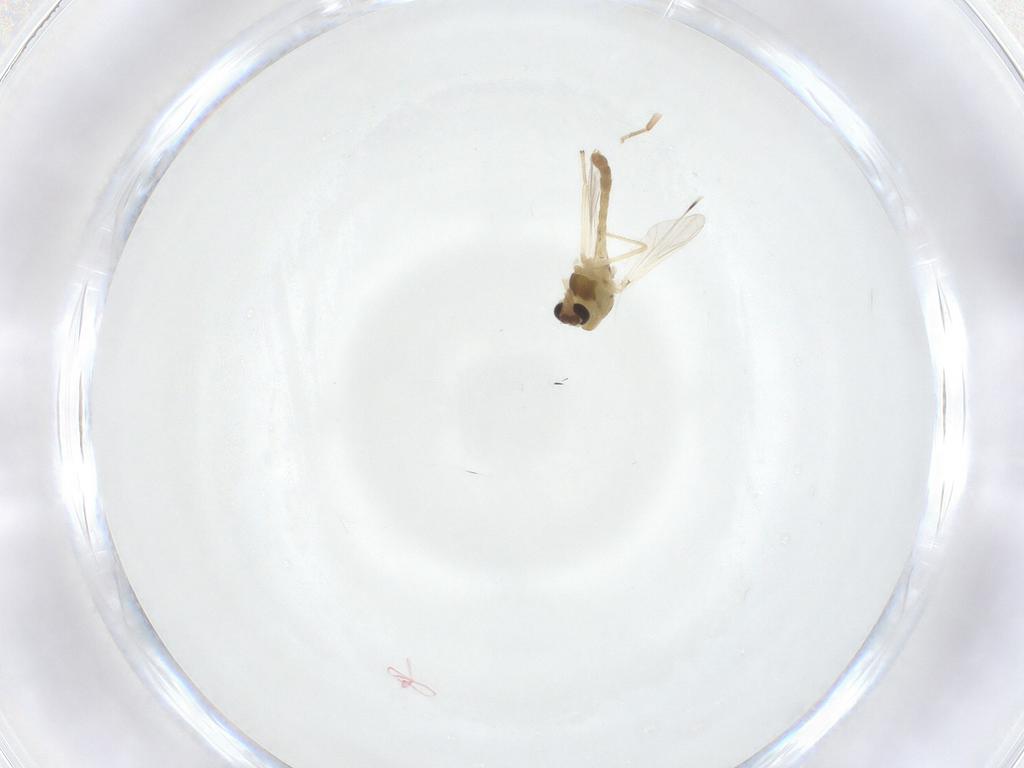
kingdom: Animalia
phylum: Arthropoda
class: Insecta
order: Diptera
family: Chironomidae
